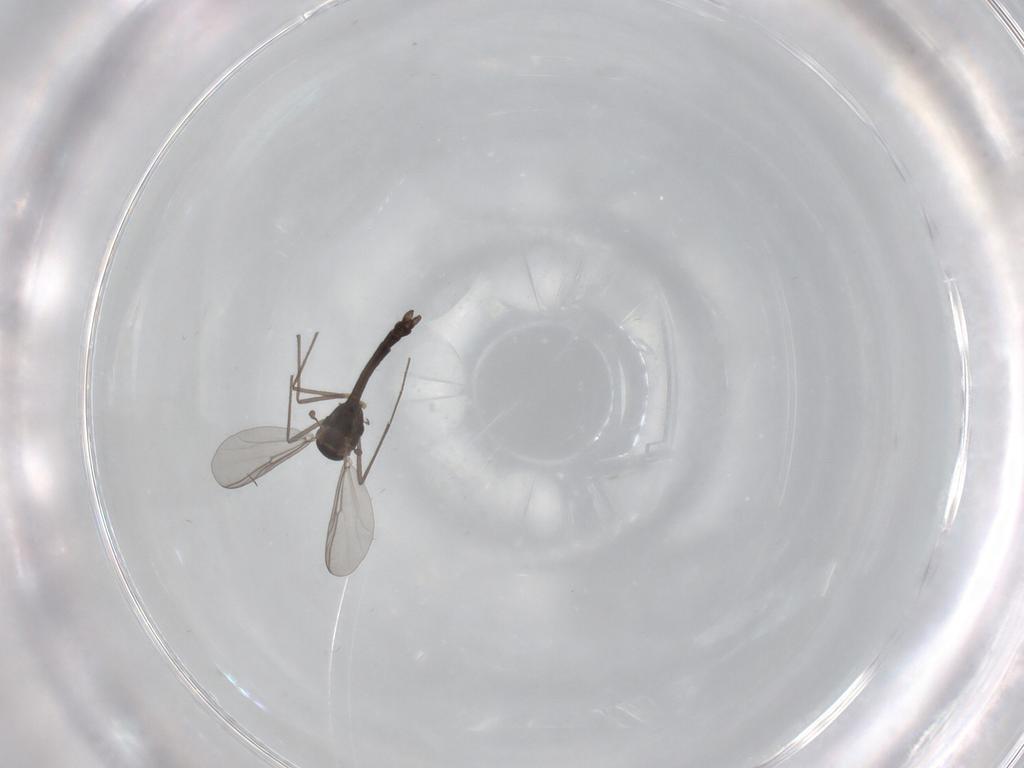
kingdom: Animalia
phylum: Arthropoda
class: Insecta
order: Diptera
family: Chironomidae
